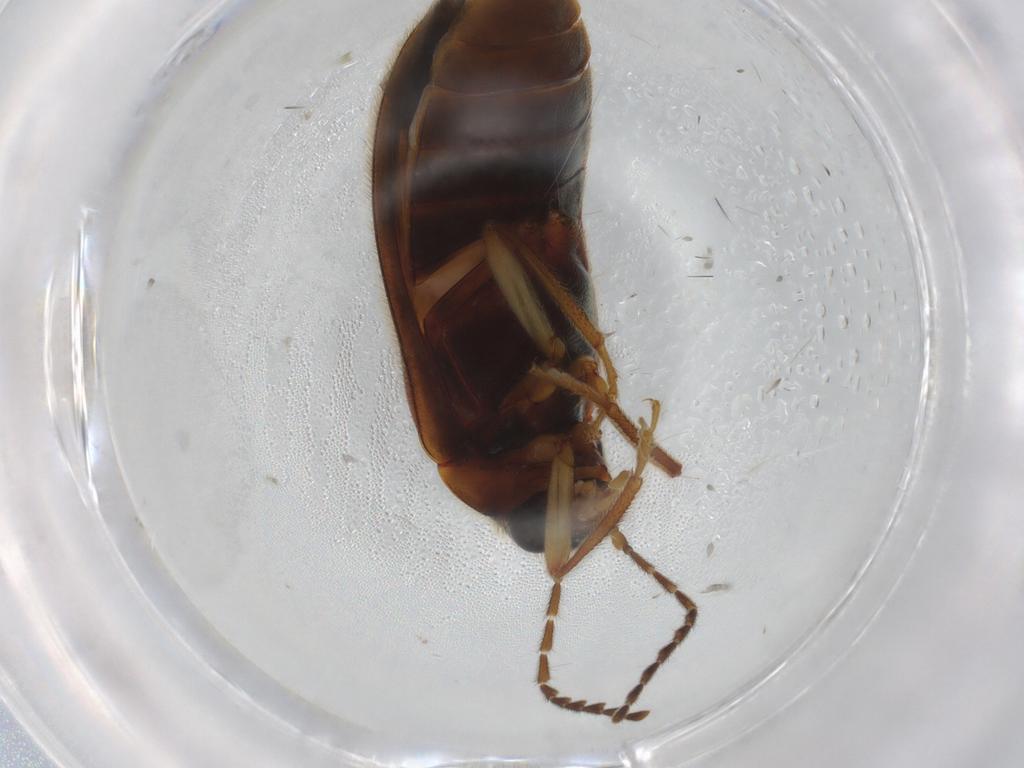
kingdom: Animalia
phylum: Arthropoda
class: Insecta
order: Coleoptera
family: Ptilodactylidae
